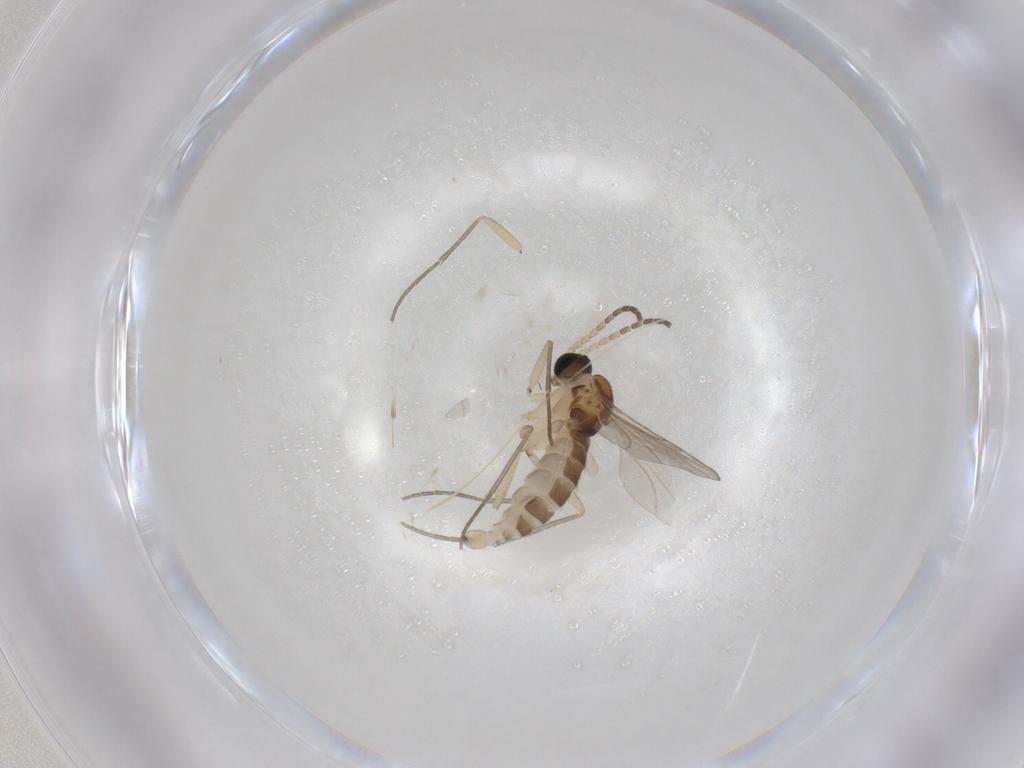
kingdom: Animalia
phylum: Arthropoda
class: Insecta
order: Diptera
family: Sciaridae
